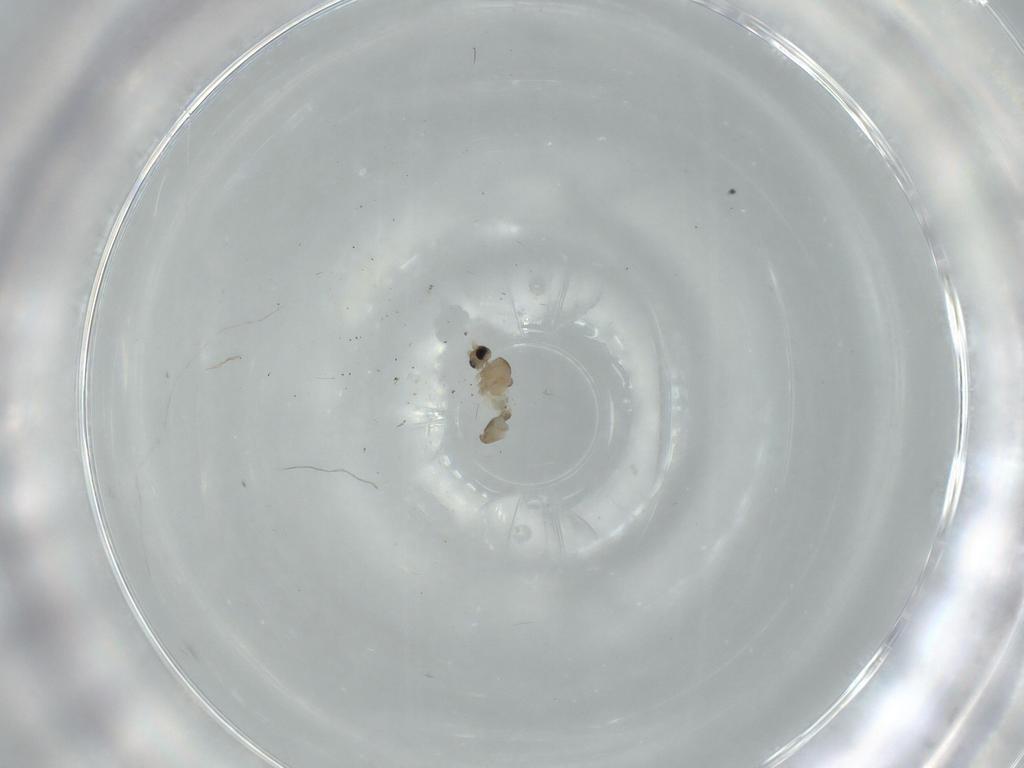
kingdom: Animalia
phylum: Arthropoda
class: Insecta
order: Diptera
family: Cecidomyiidae
